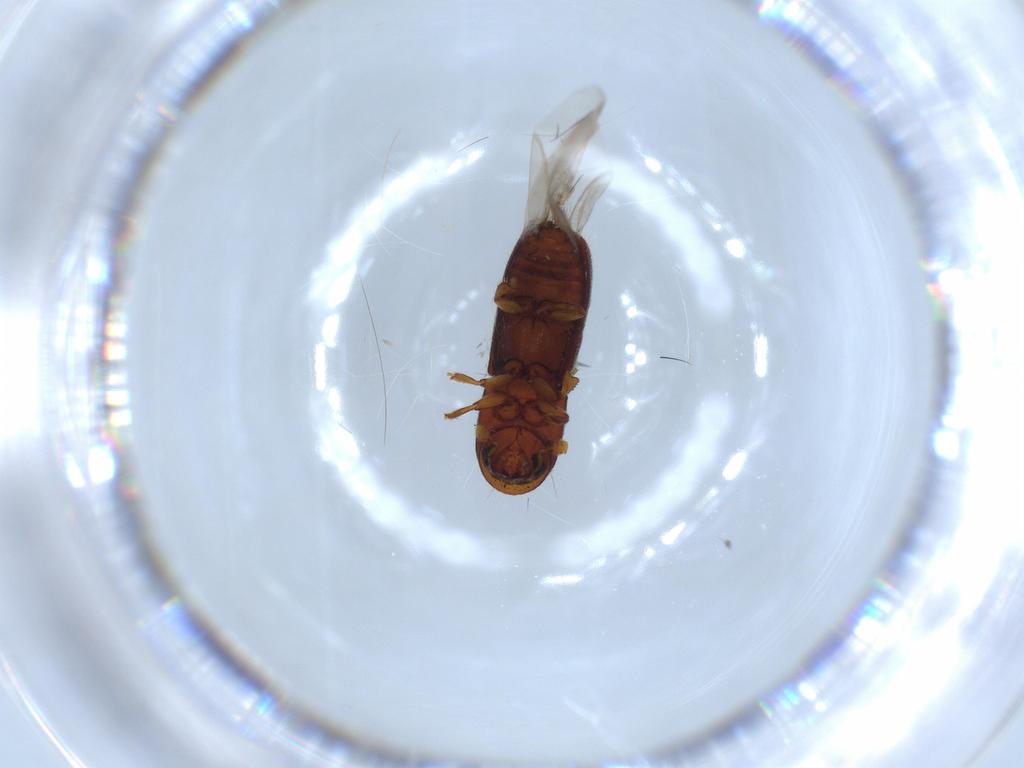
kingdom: Animalia
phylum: Arthropoda
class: Insecta
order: Coleoptera
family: Curculionidae
